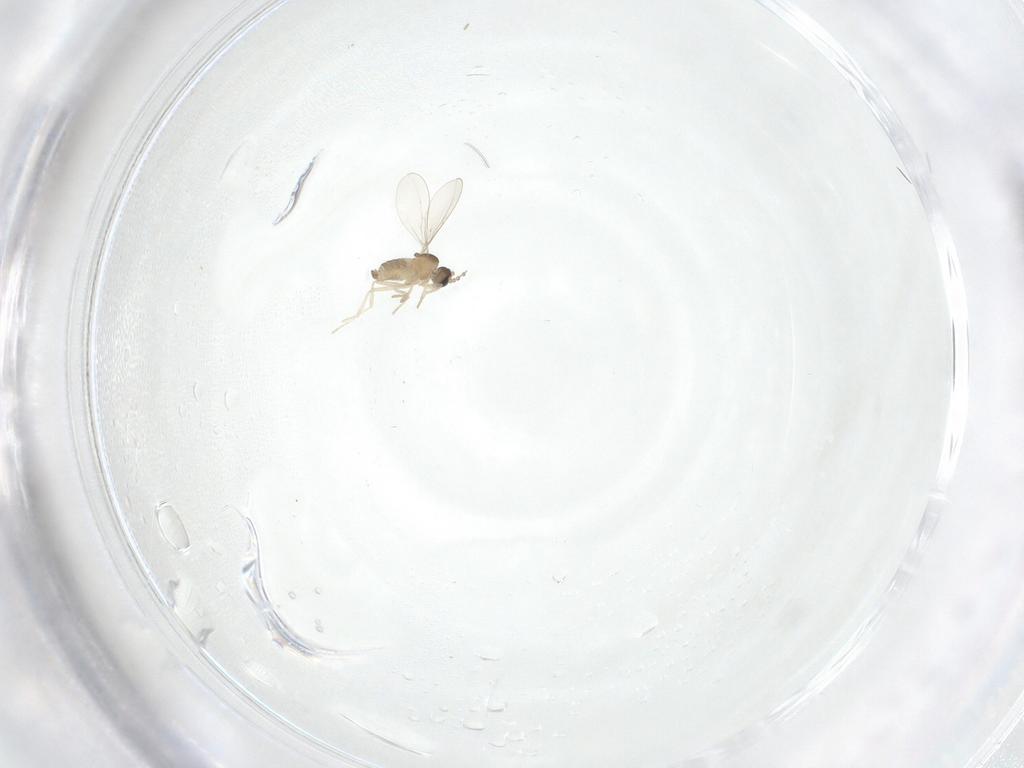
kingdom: Animalia
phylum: Arthropoda
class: Insecta
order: Diptera
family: Cecidomyiidae
